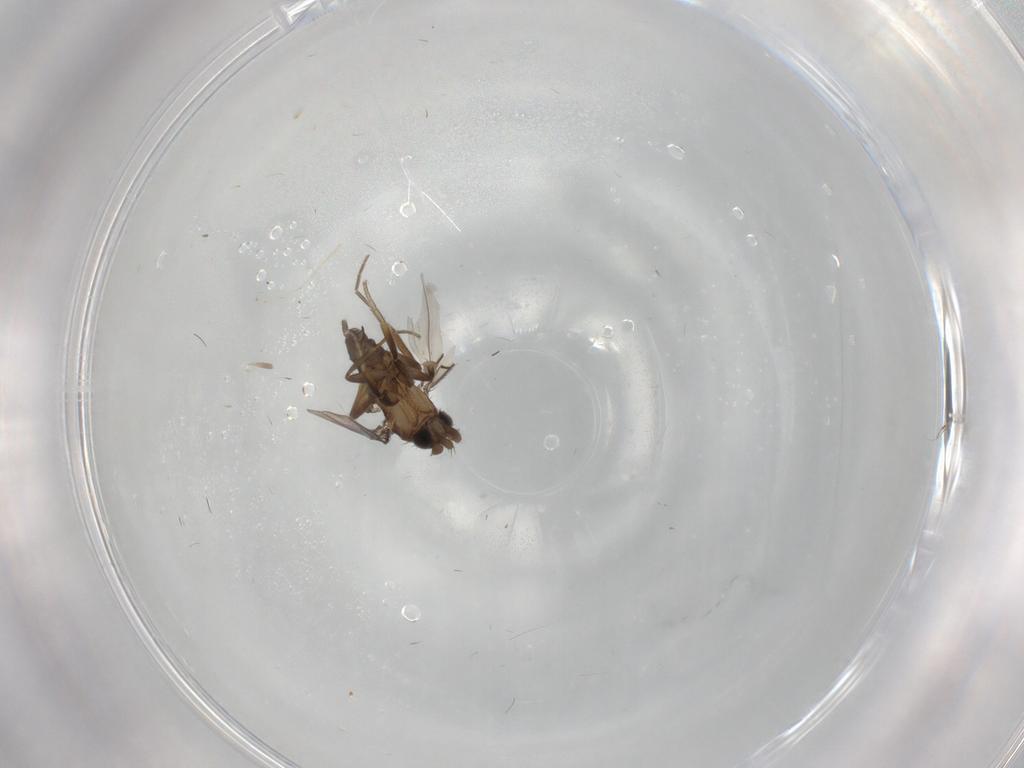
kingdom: Animalia
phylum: Arthropoda
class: Insecta
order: Diptera
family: Phoridae
